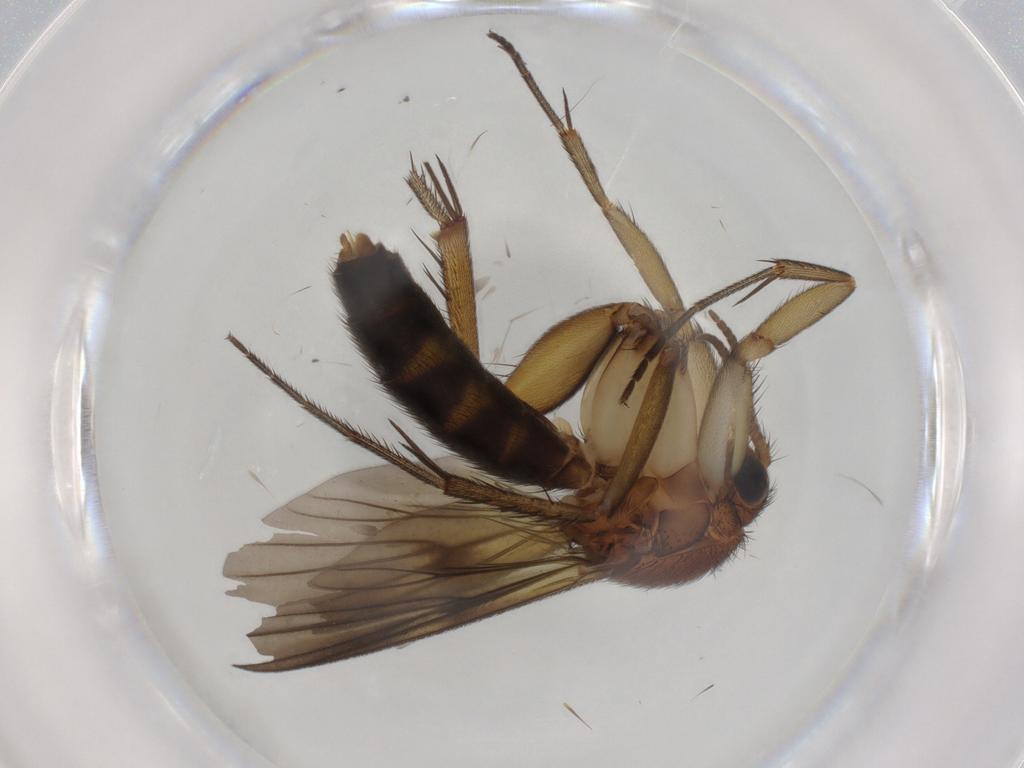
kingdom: Animalia
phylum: Arthropoda
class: Insecta
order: Diptera
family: Sciaridae
